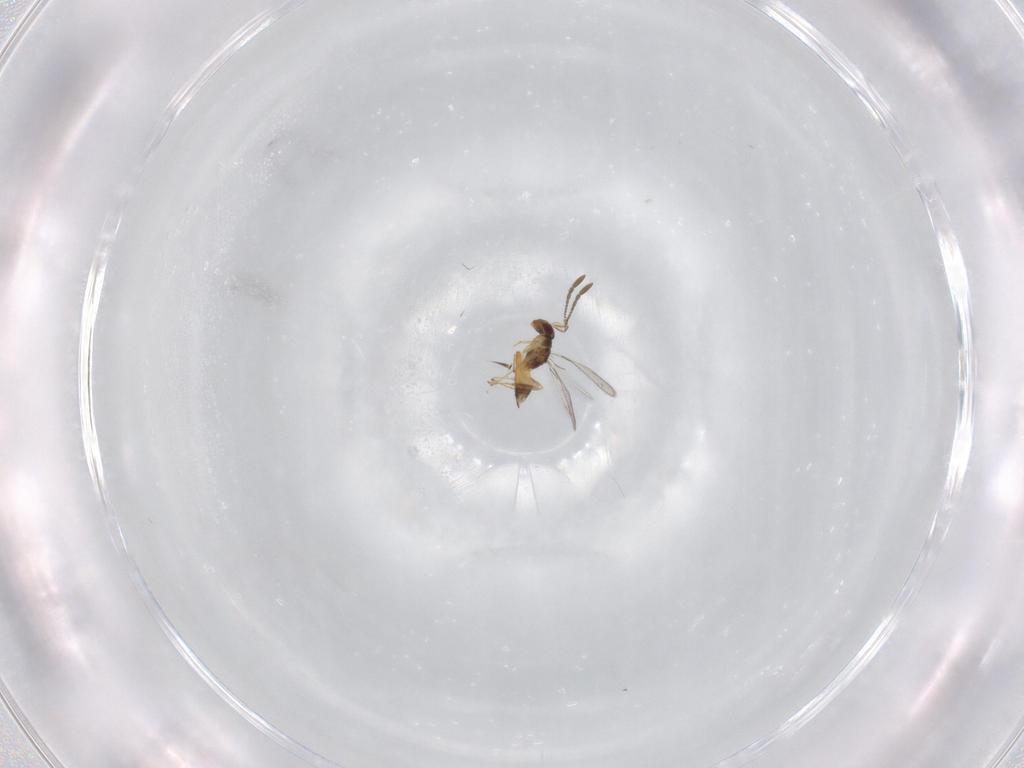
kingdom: Animalia
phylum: Arthropoda
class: Insecta
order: Hymenoptera
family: Mymaridae
